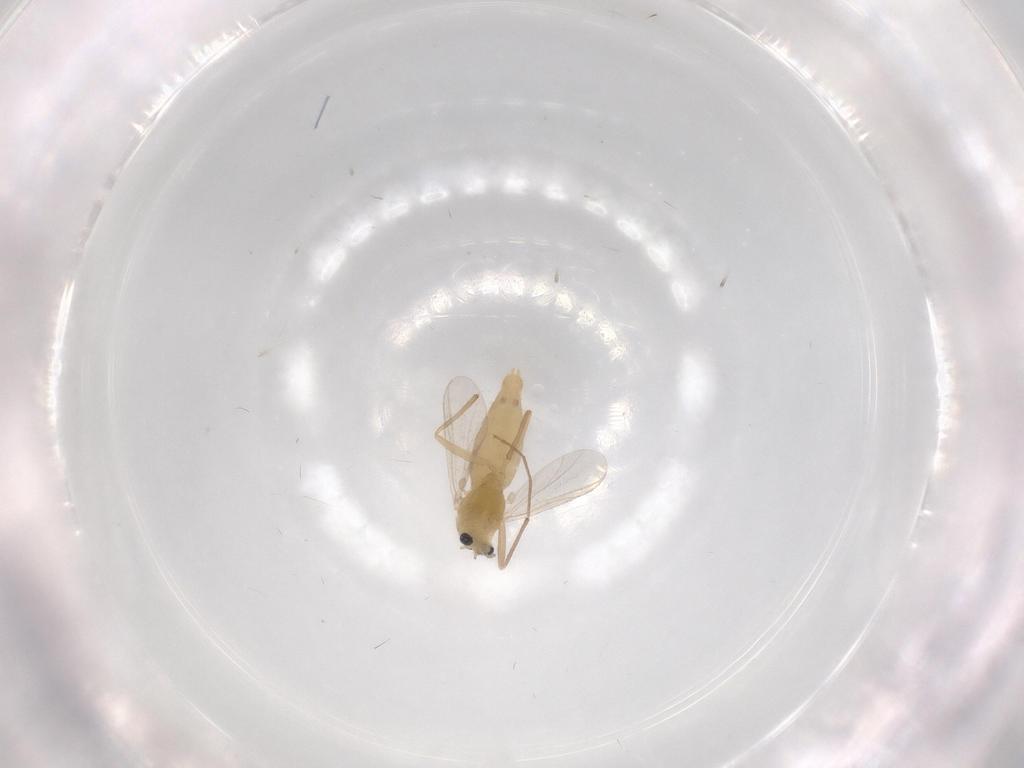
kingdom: Animalia
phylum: Arthropoda
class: Insecta
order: Diptera
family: Chironomidae
